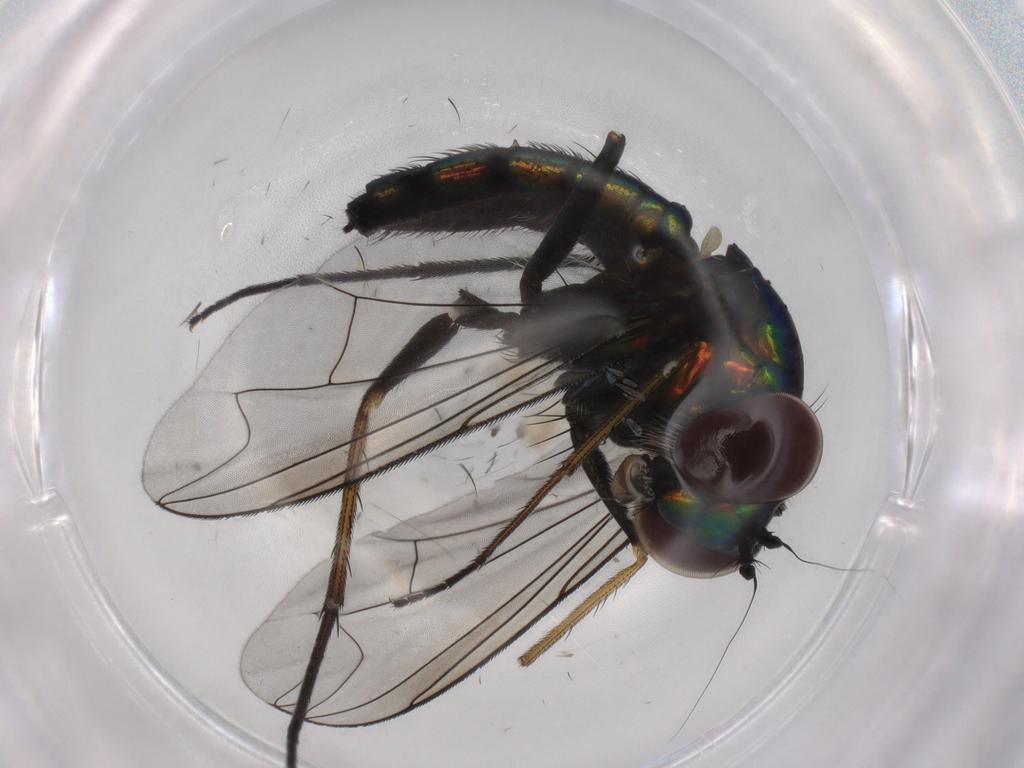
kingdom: Animalia
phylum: Arthropoda
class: Insecta
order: Diptera
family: Dolichopodidae
